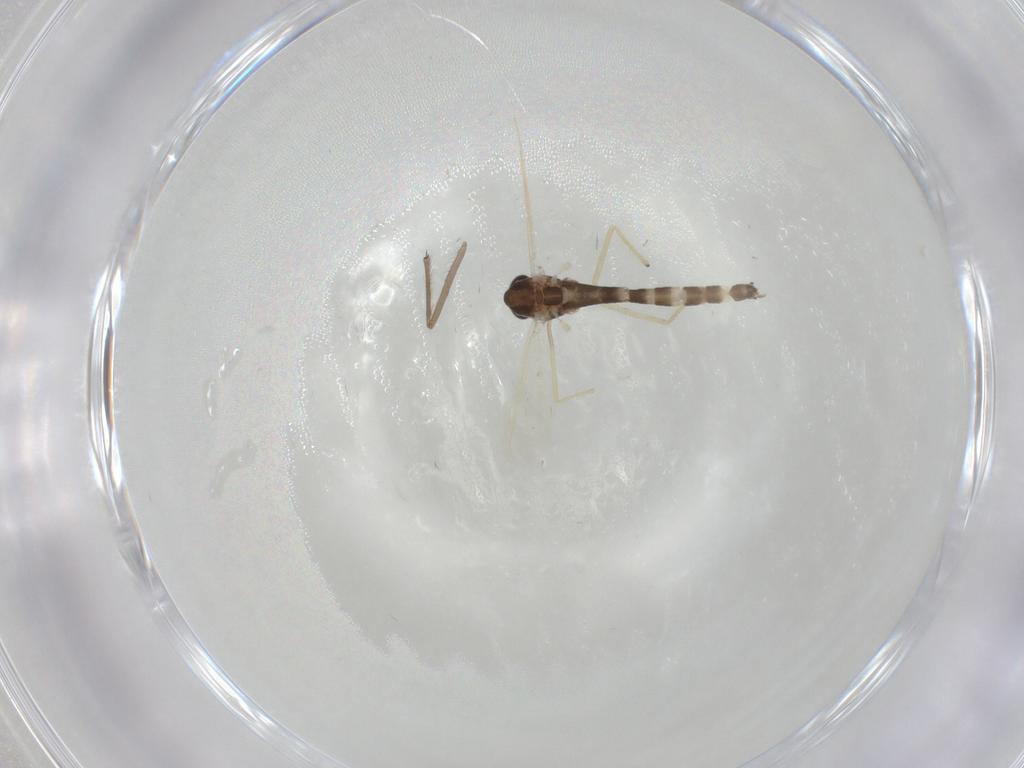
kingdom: Animalia
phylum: Arthropoda
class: Insecta
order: Diptera
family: Chironomidae
